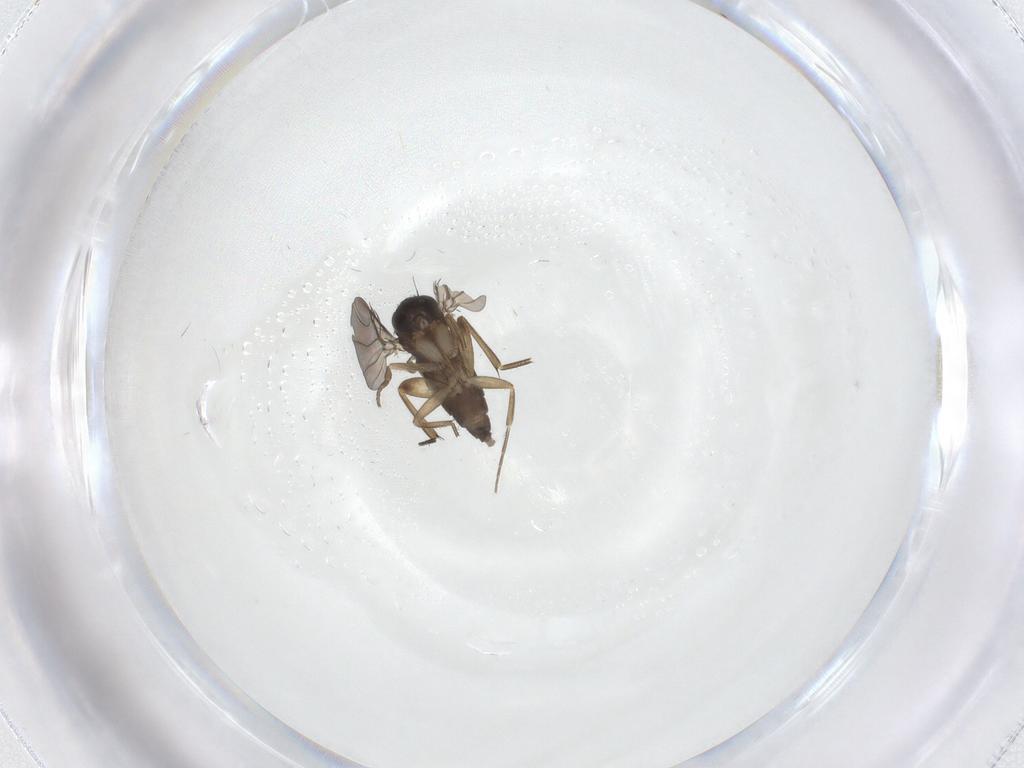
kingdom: Animalia
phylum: Arthropoda
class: Insecta
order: Diptera
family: Phoridae
